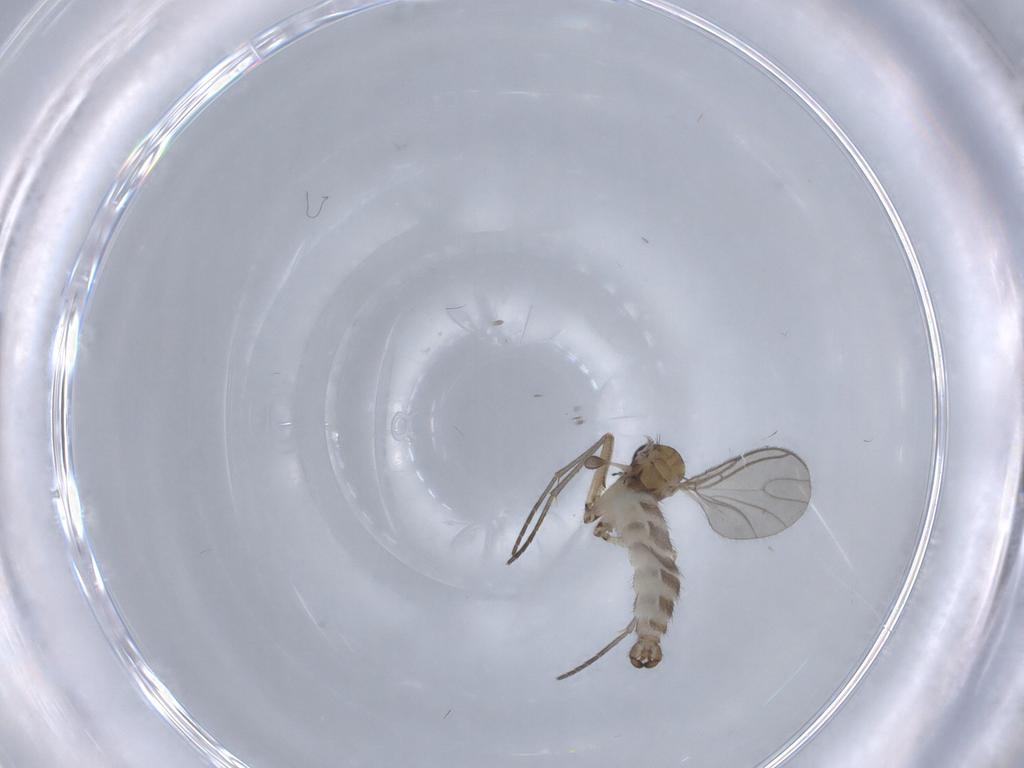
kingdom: Animalia
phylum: Arthropoda
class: Insecta
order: Diptera
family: Sciaridae
